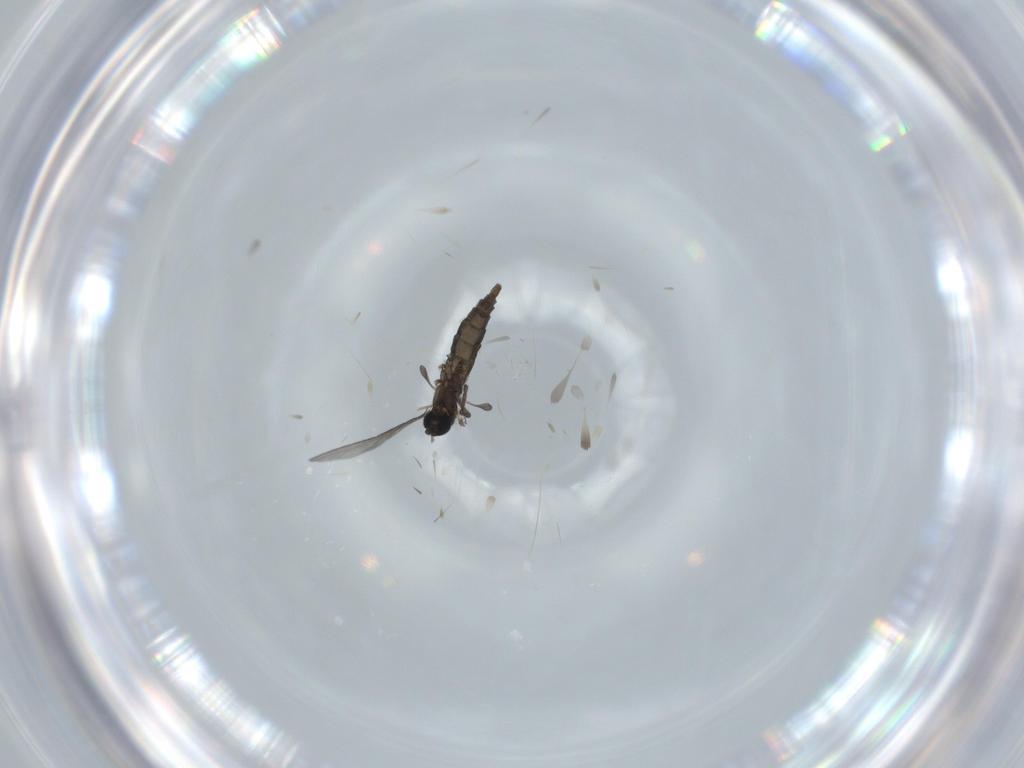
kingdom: Animalia
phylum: Arthropoda
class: Insecta
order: Diptera
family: Sciaridae
